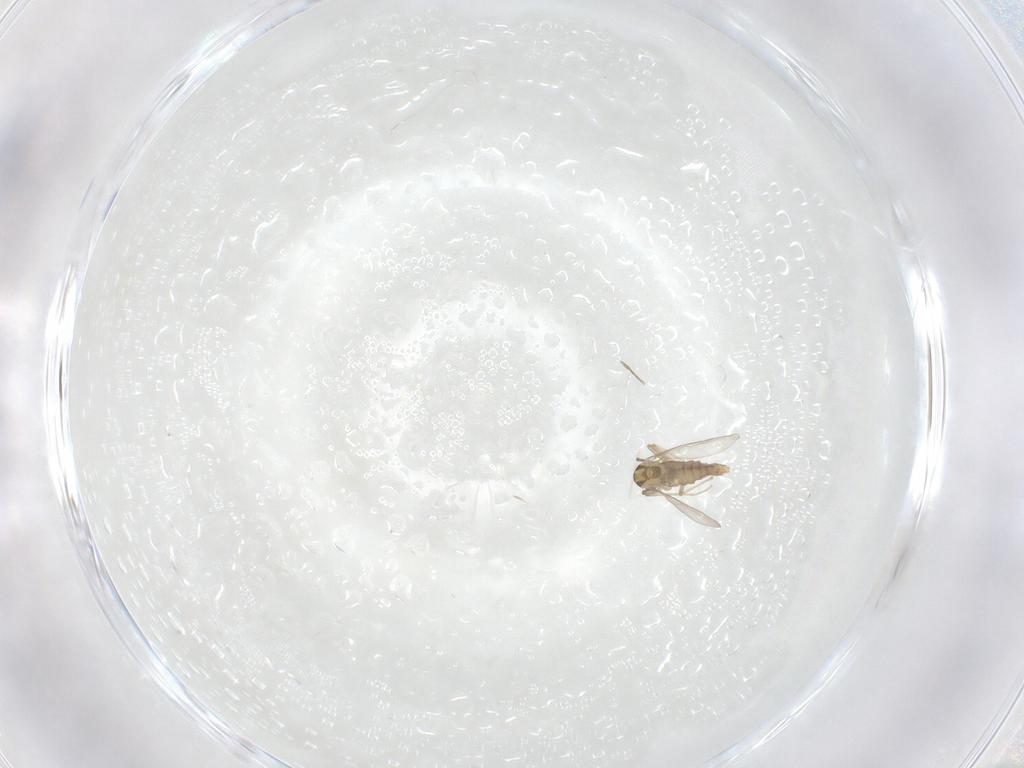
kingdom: Animalia
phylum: Arthropoda
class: Insecta
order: Diptera
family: Chironomidae
